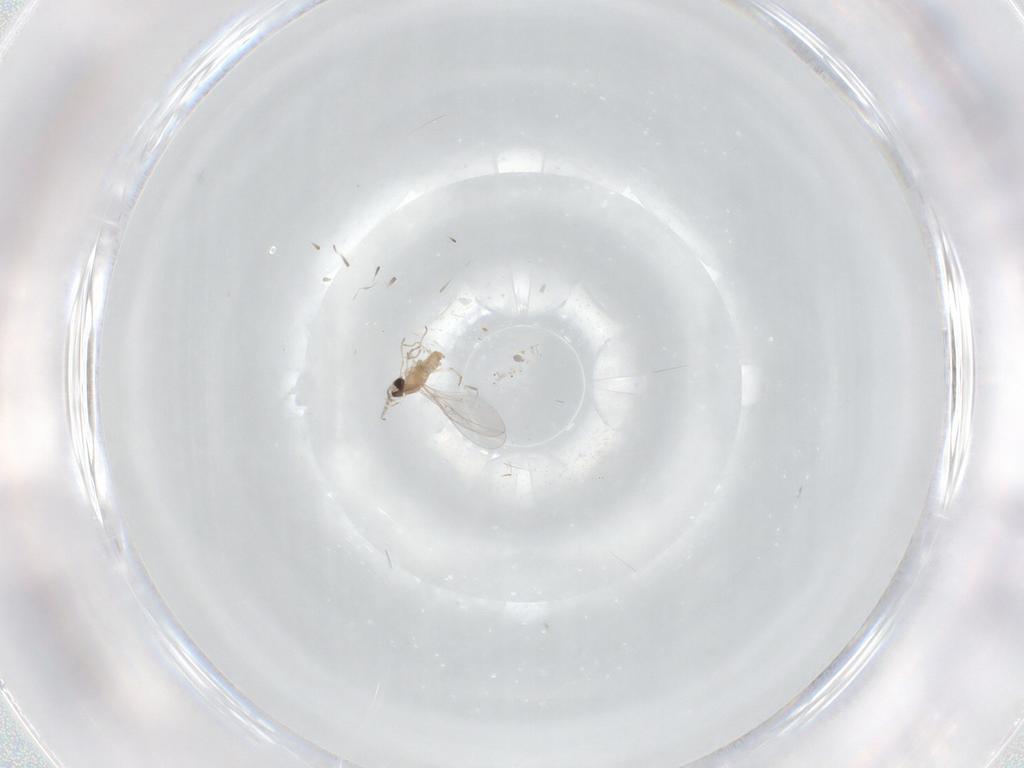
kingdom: Animalia
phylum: Arthropoda
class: Insecta
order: Diptera
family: Cecidomyiidae
